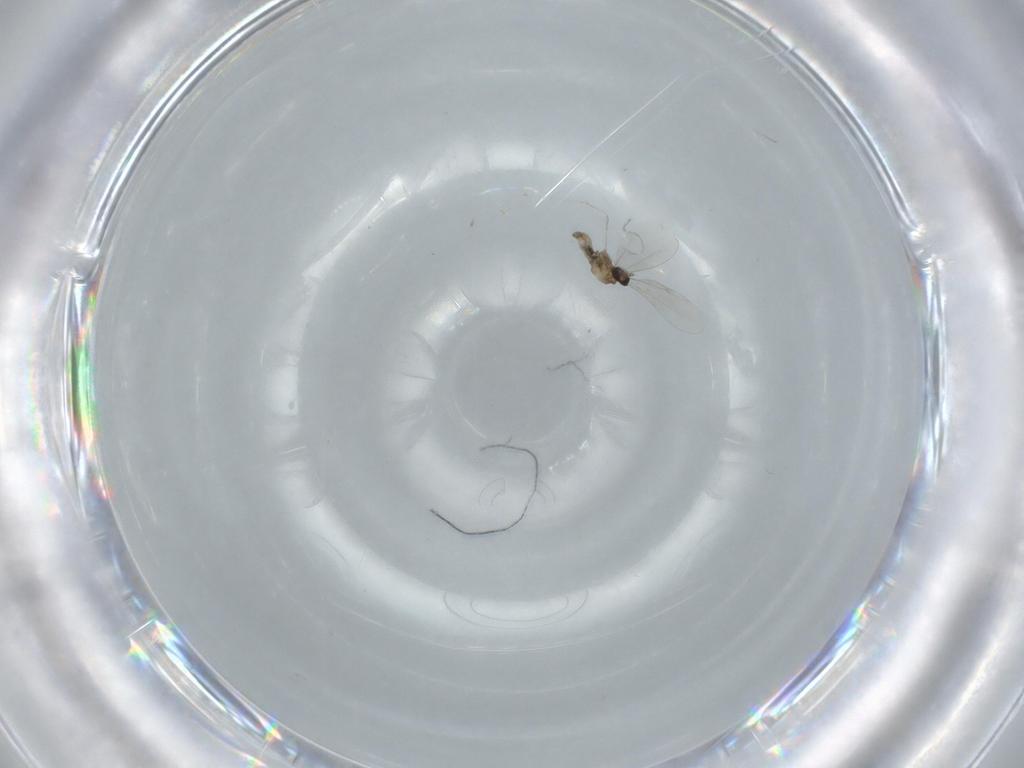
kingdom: Animalia
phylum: Arthropoda
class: Insecta
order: Diptera
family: Cecidomyiidae
